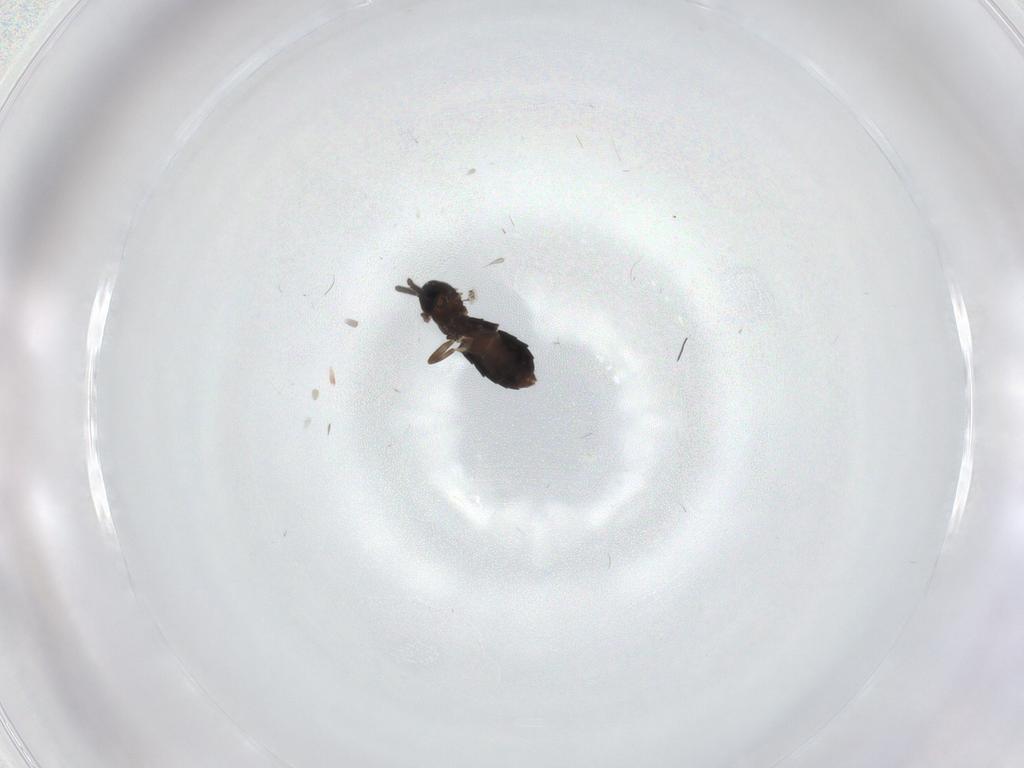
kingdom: Animalia
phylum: Arthropoda
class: Insecta
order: Diptera
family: Scatopsidae
